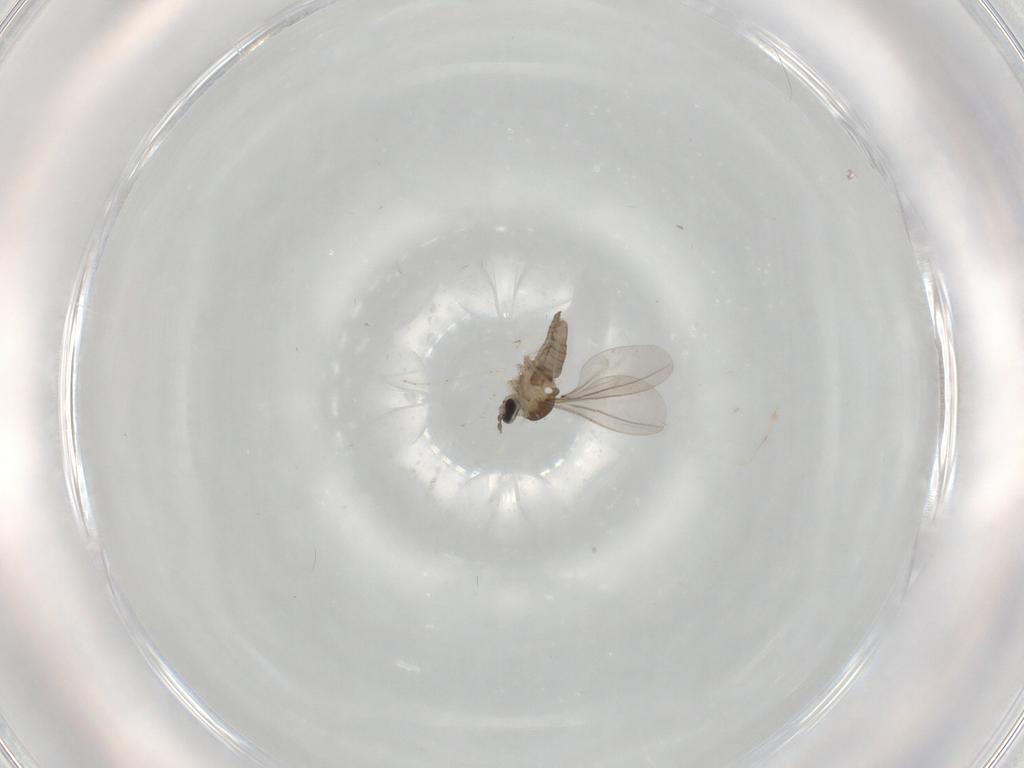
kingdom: Animalia
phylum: Arthropoda
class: Insecta
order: Diptera
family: Cecidomyiidae
